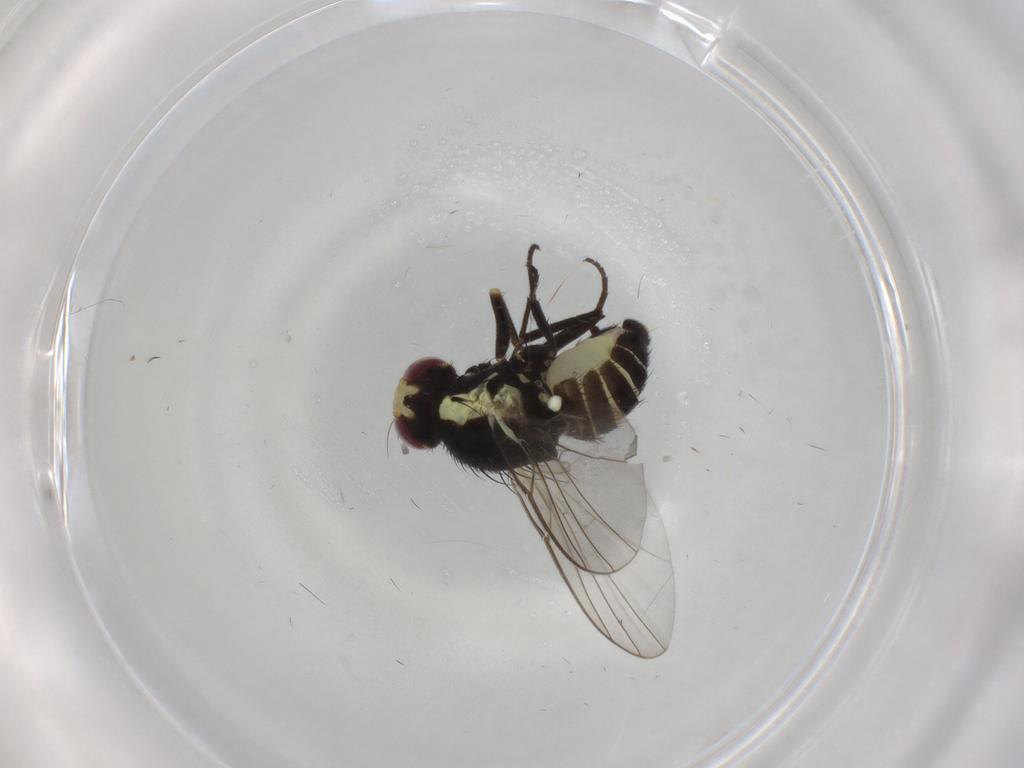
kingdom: Animalia
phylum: Arthropoda
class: Insecta
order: Diptera
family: Agromyzidae
